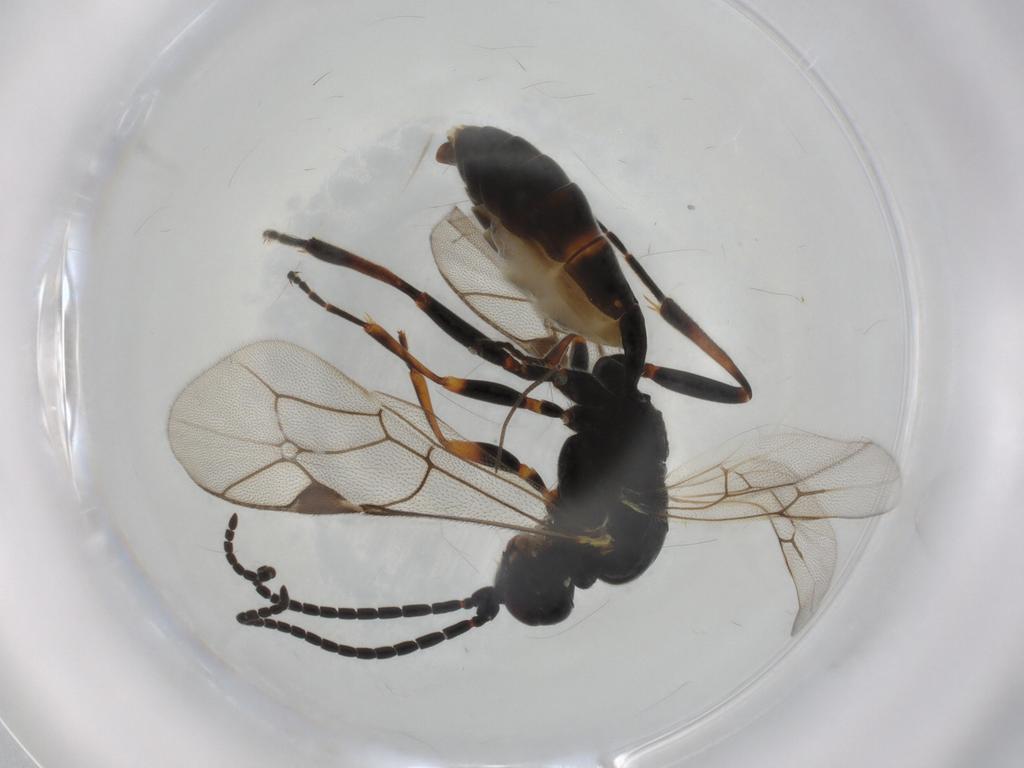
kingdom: Animalia
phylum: Arthropoda
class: Insecta
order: Hymenoptera
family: Ichneumonidae
